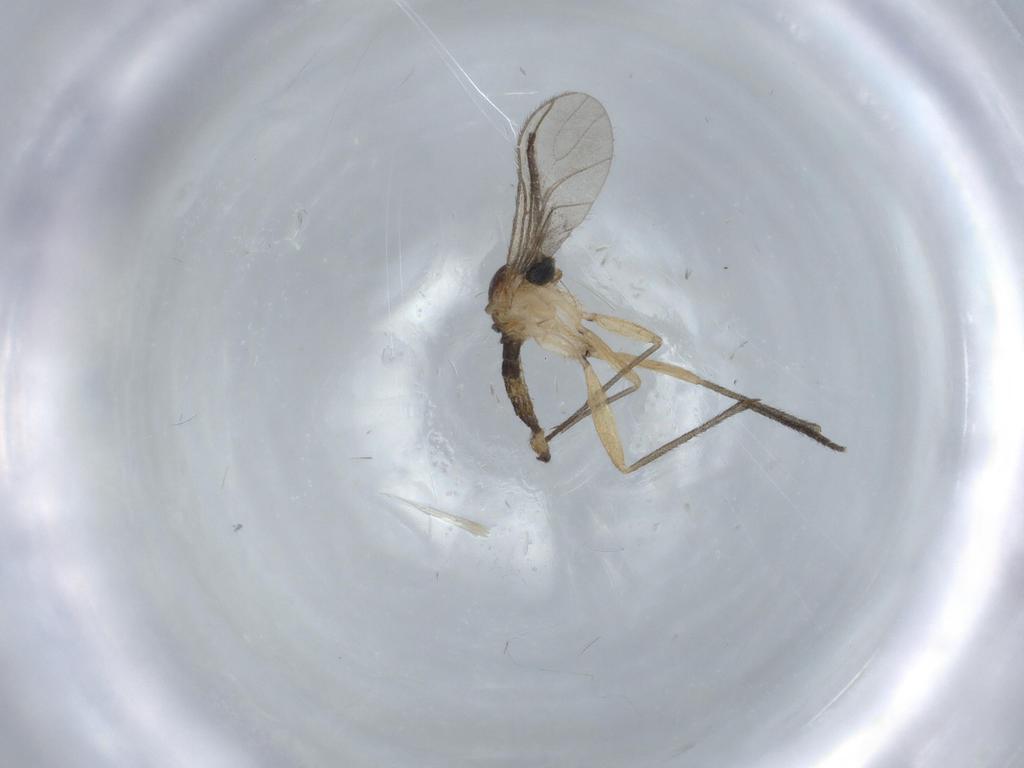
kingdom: Animalia
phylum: Arthropoda
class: Insecta
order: Diptera
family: Sciaridae
